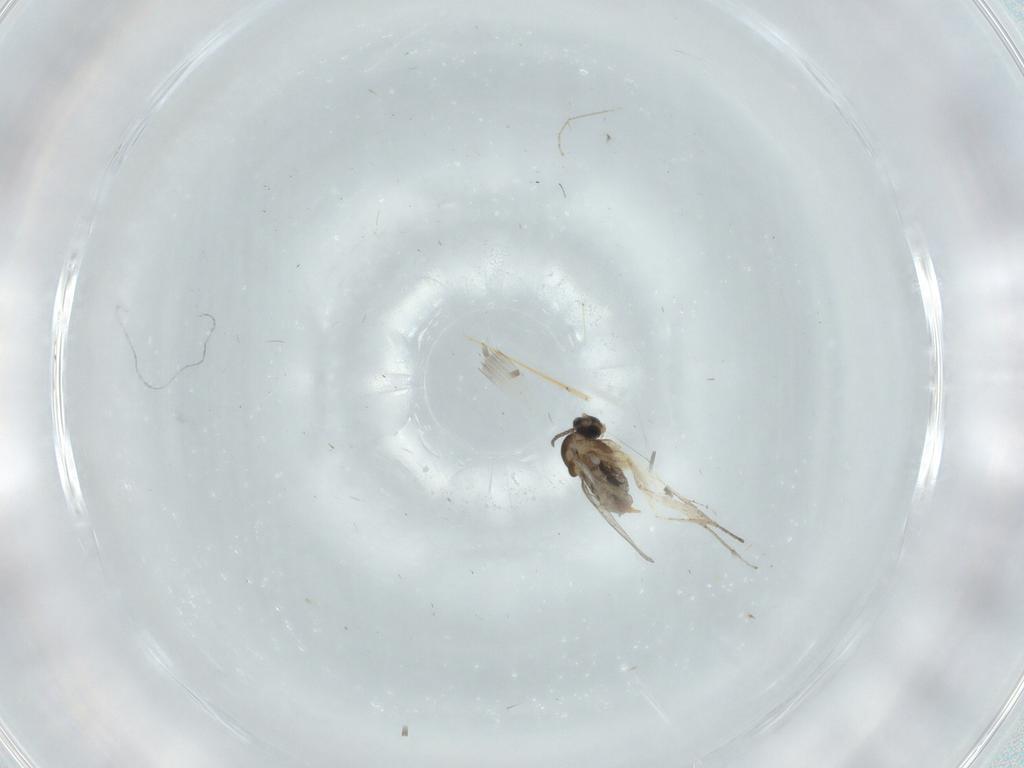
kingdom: Animalia
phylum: Arthropoda
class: Insecta
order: Diptera
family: Cecidomyiidae
